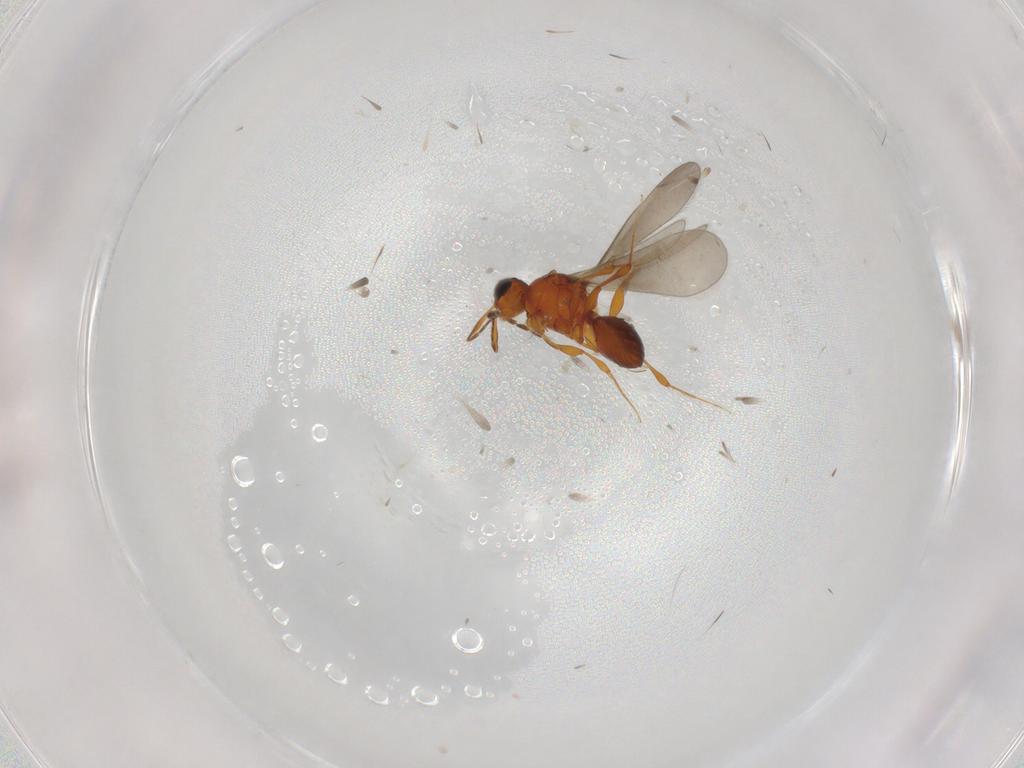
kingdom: Animalia
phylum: Arthropoda
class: Insecta
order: Hymenoptera
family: Platygastridae
